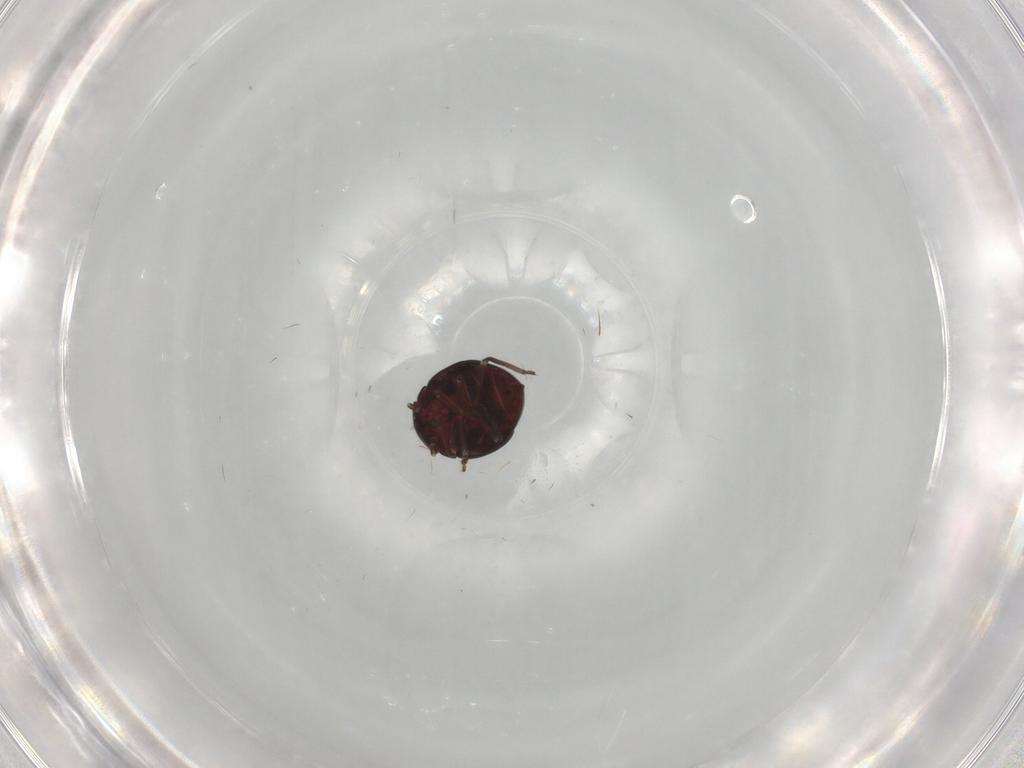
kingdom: Animalia
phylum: Arthropoda
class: Insecta
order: Hemiptera
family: Schizopteridae
